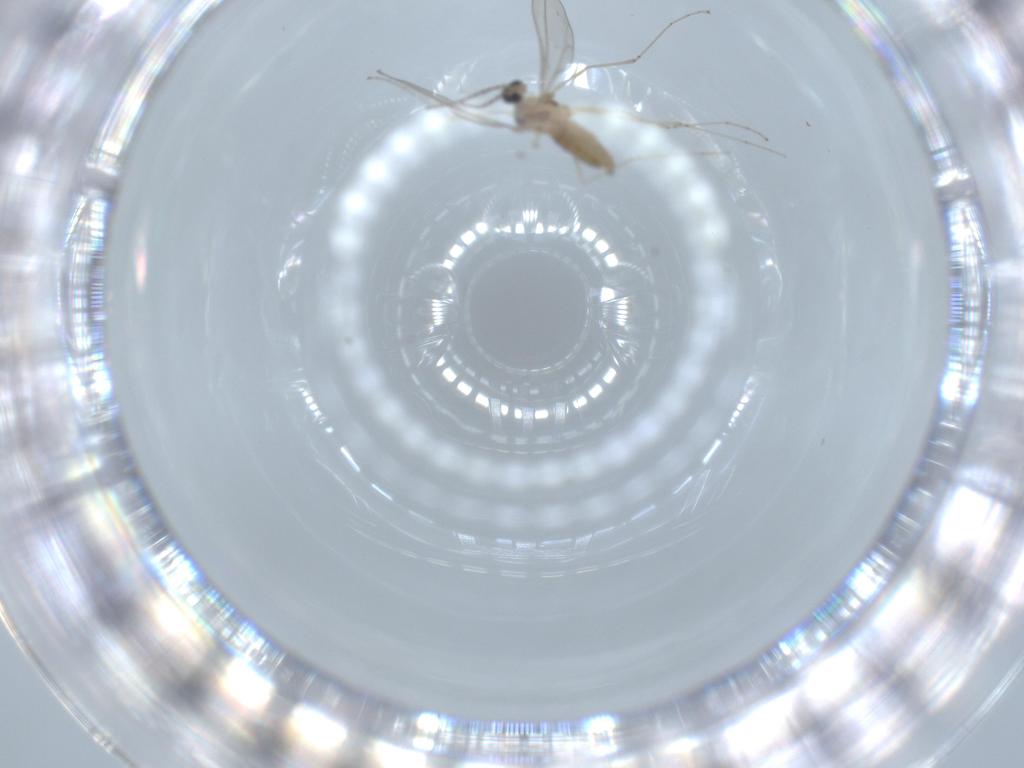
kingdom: Animalia
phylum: Arthropoda
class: Insecta
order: Diptera
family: Cecidomyiidae
